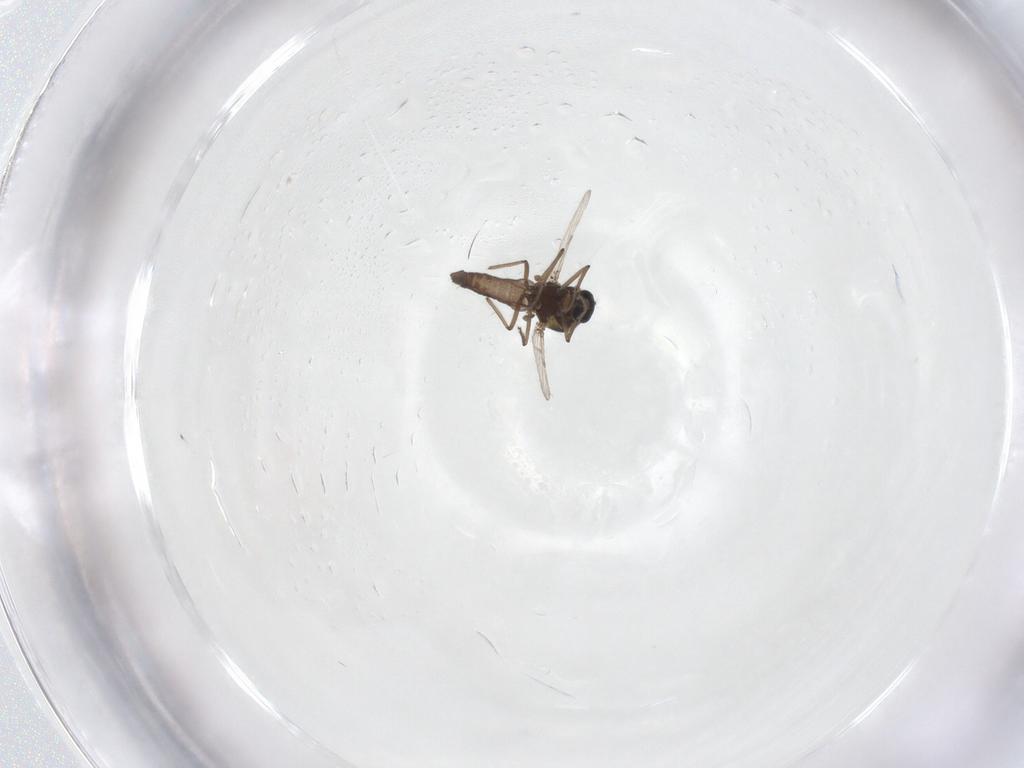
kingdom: Animalia
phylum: Arthropoda
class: Insecta
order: Diptera
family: Ceratopogonidae
